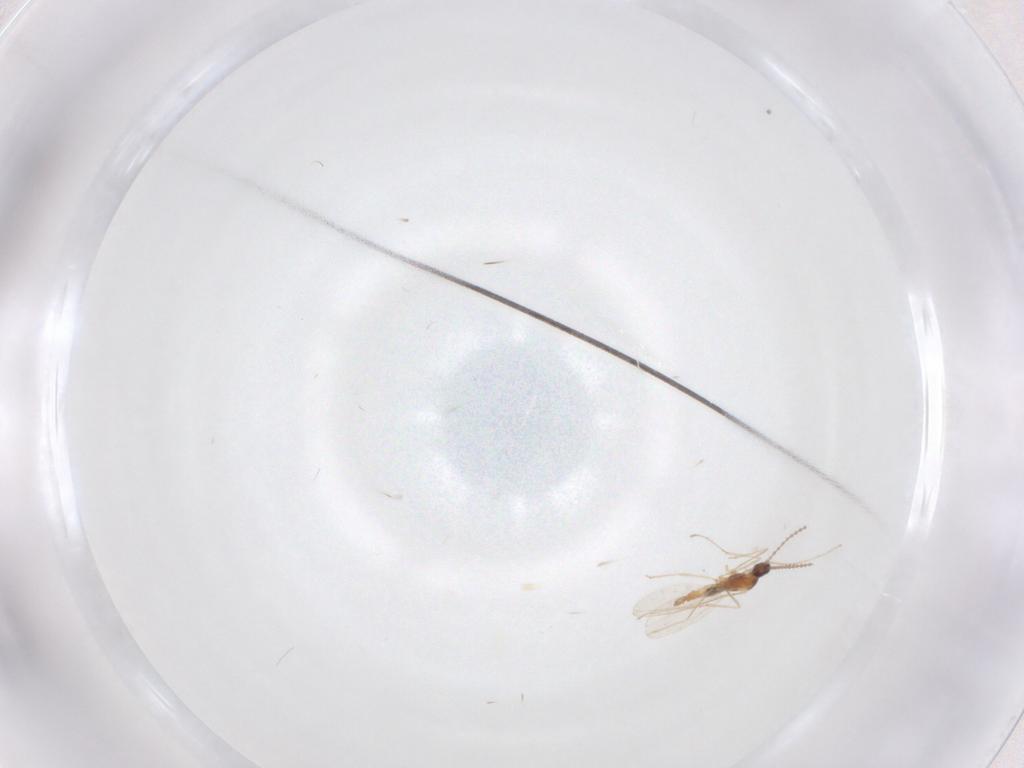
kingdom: Animalia
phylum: Arthropoda
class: Insecta
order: Diptera
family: Cecidomyiidae
